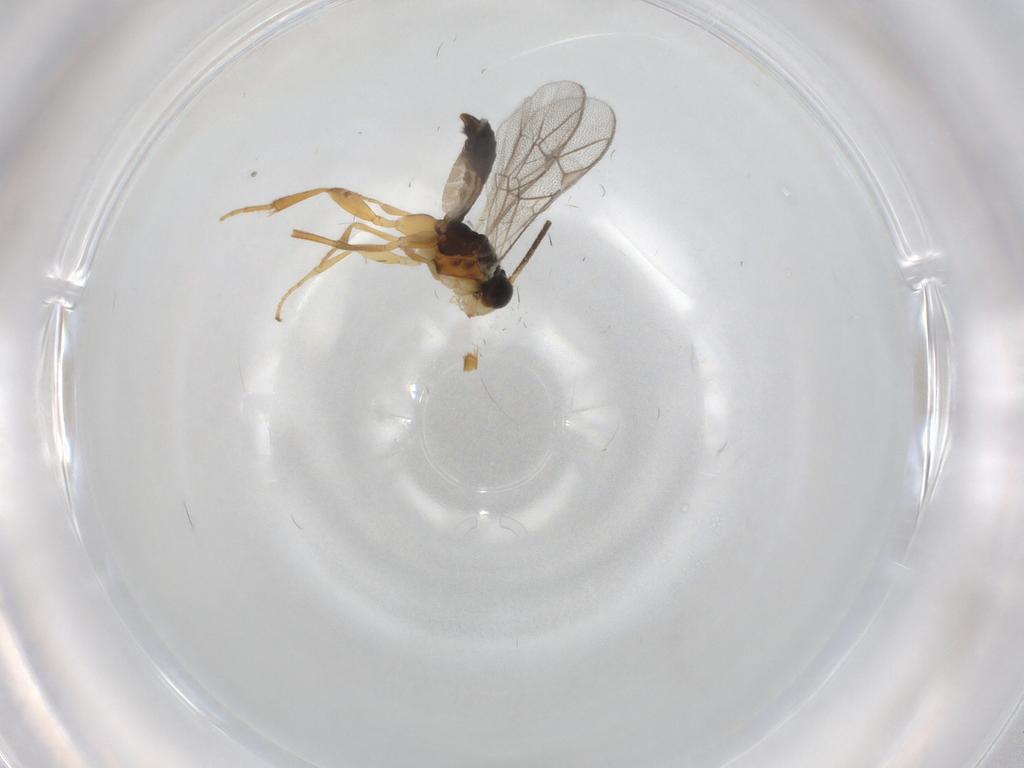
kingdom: Animalia
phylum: Arthropoda
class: Insecta
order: Hymenoptera
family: Ichneumonidae
